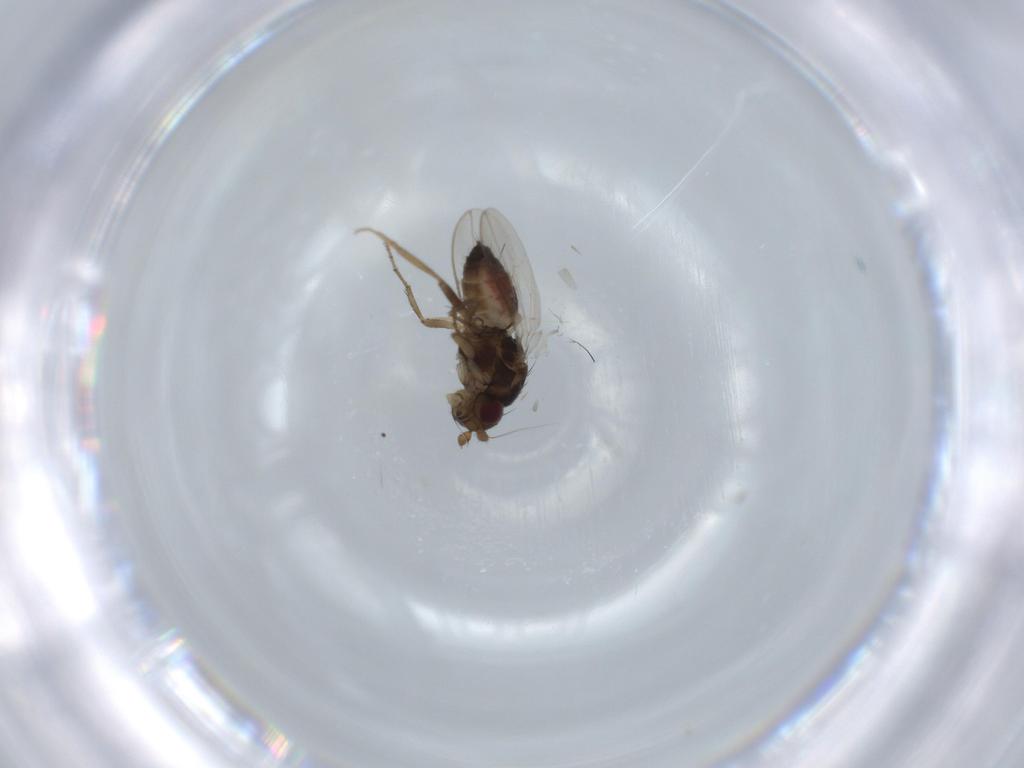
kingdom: Animalia
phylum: Arthropoda
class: Insecta
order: Diptera
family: Sphaeroceridae
